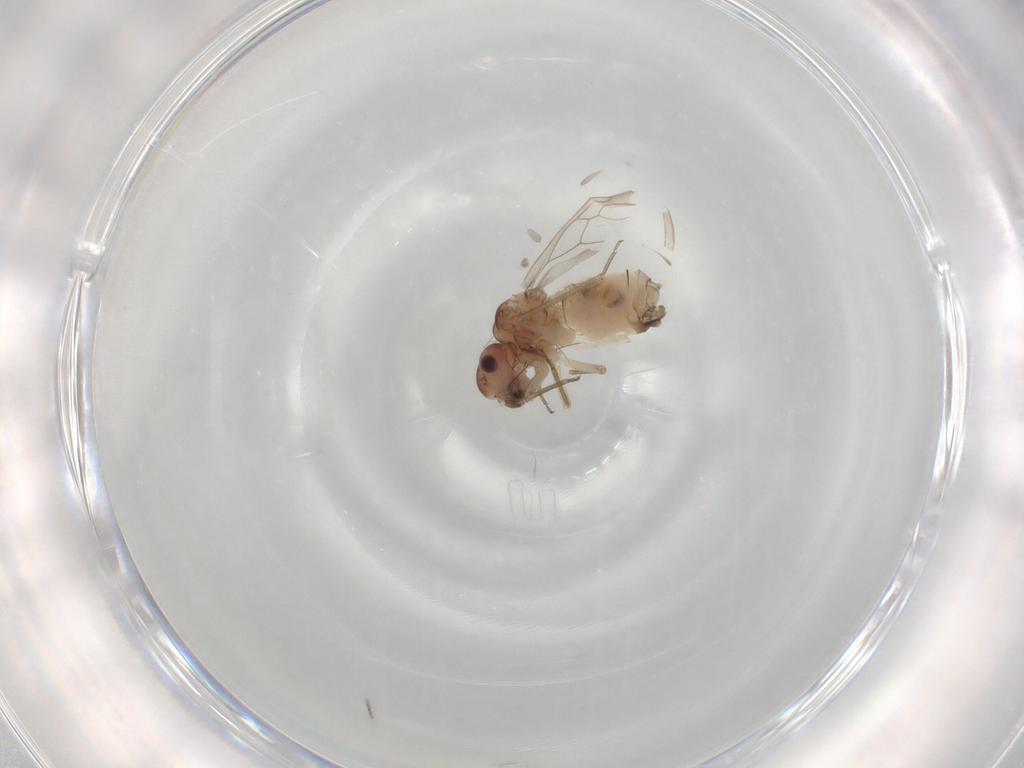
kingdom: Animalia
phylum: Arthropoda
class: Insecta
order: Psocodea
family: Peripsocidae
